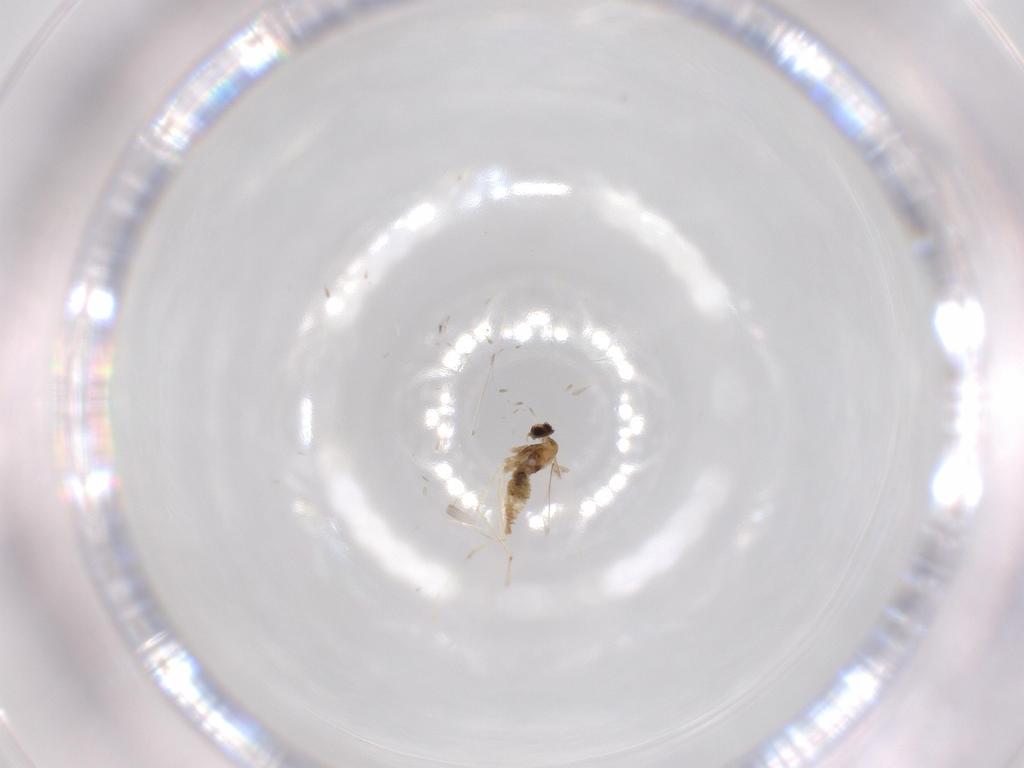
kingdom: Animalia
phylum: Arthropoda
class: Insecta
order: Diptera
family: Cecidomyiidae
